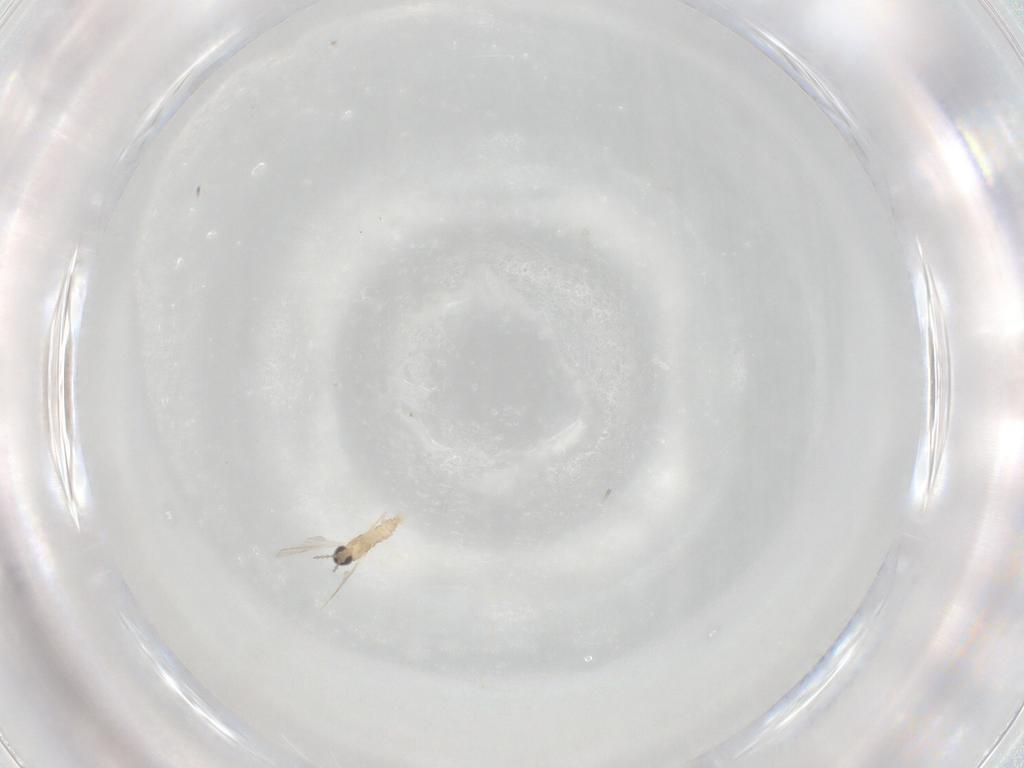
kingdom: Animalia
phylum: Arthropoda
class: Insecta
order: Diptera
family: Cecidomyiidae
